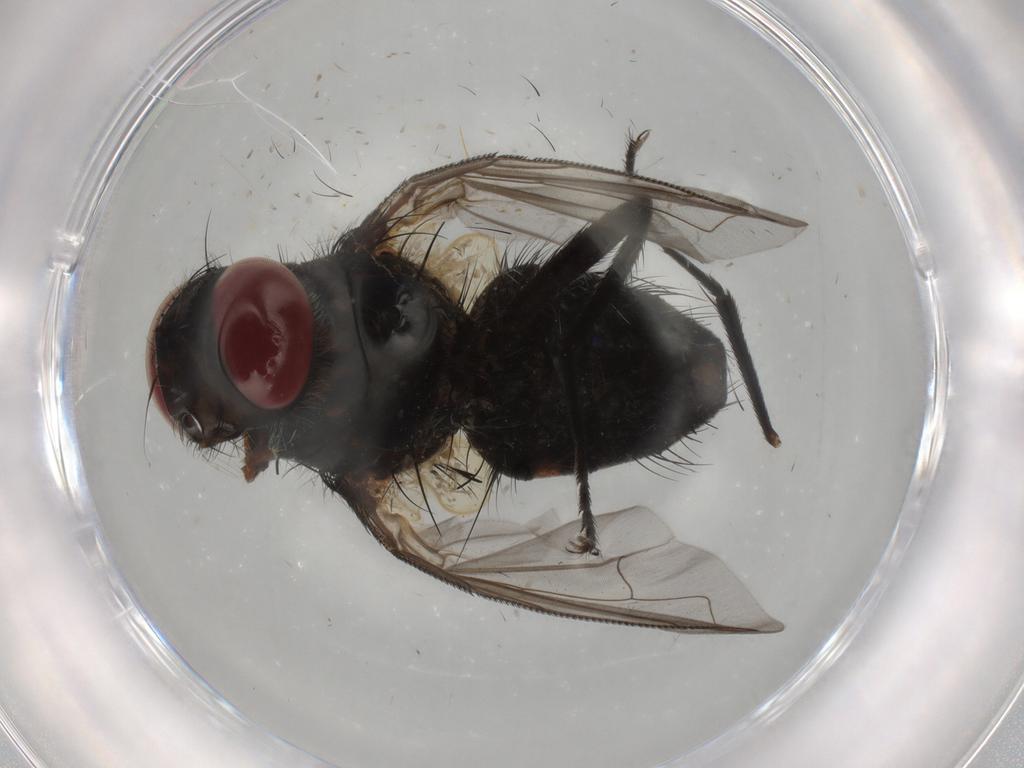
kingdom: Animalia
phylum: Arthropoda
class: Insecta
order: Diptera
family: Tachinidae
